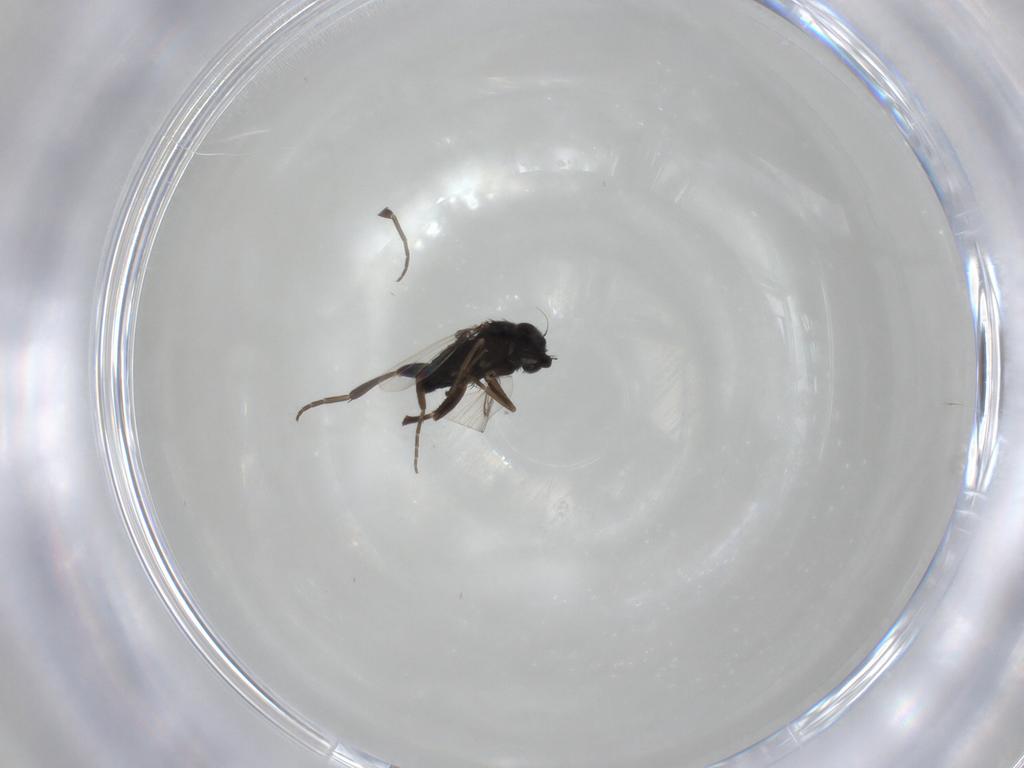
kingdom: Animalia
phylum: Arthropoda
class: Insecta
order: Diptera
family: Phoridae
